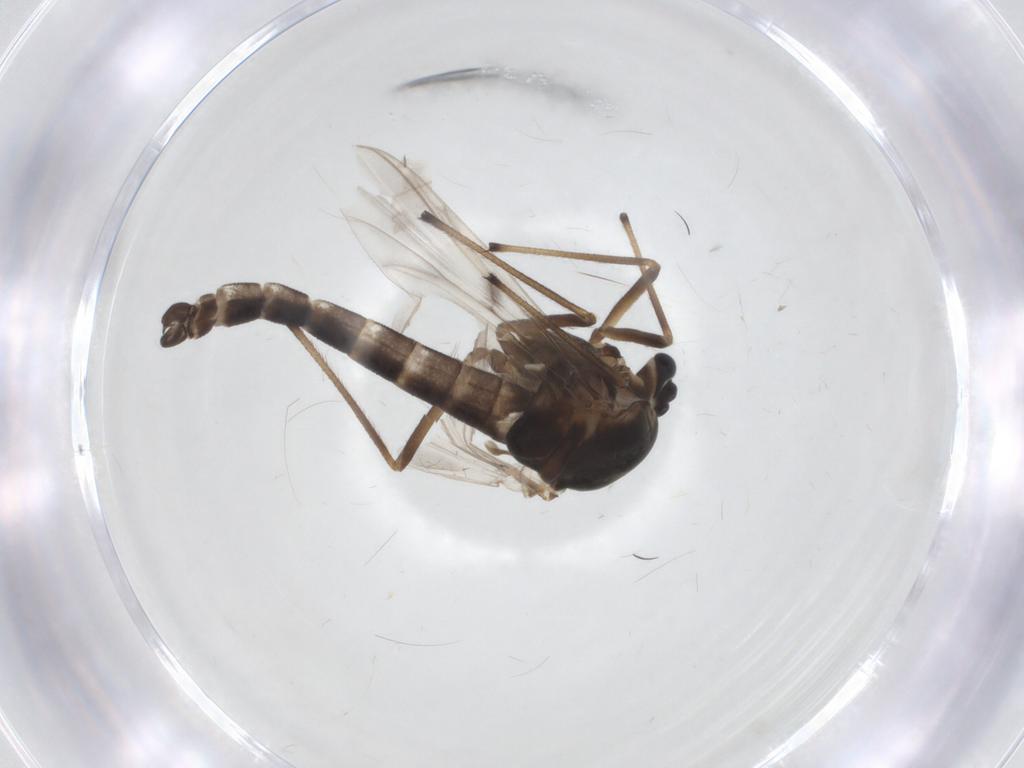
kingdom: Animalia
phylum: Arthropoda
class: Insecta
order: Diptera
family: Chironomidae
